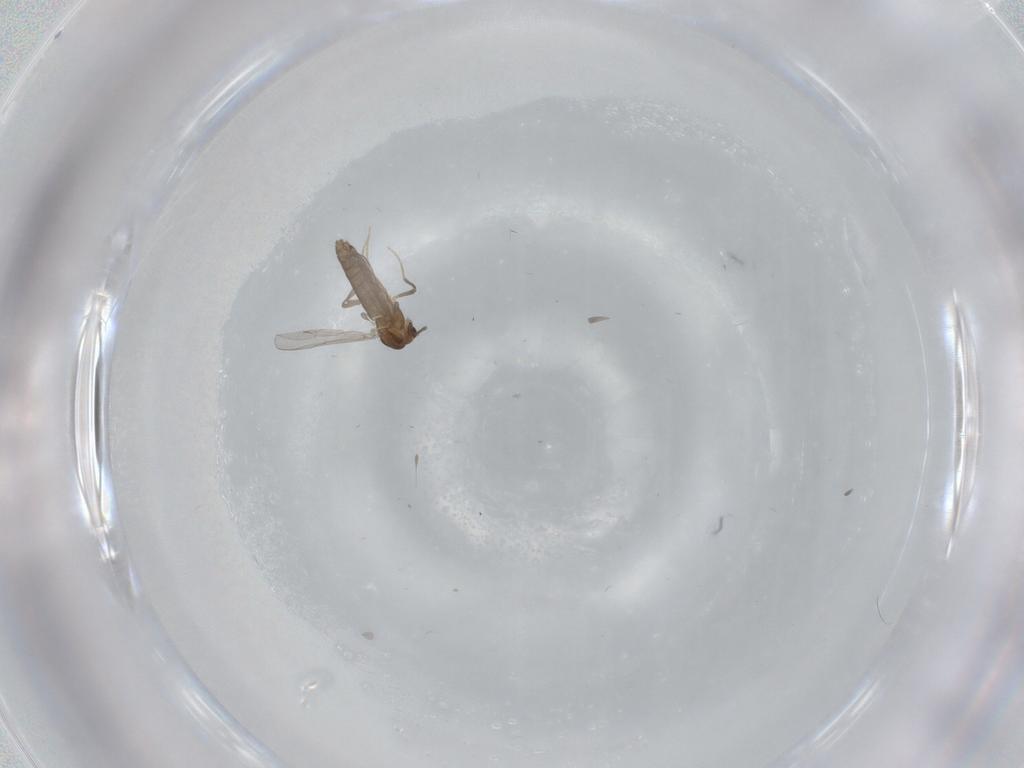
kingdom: Animalia
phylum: Arthropoda
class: Insecta
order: Diptera
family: Chironomidae
